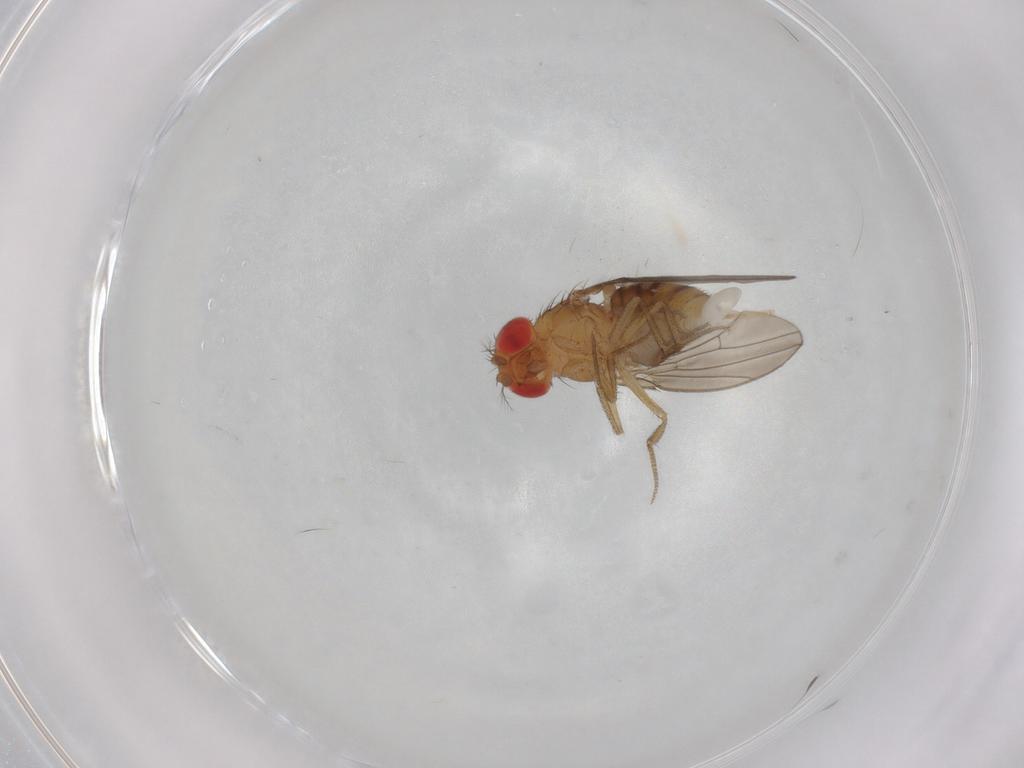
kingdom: Animalia
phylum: Arthropoda
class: Insecta
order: Diptera
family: Drosophilidae
